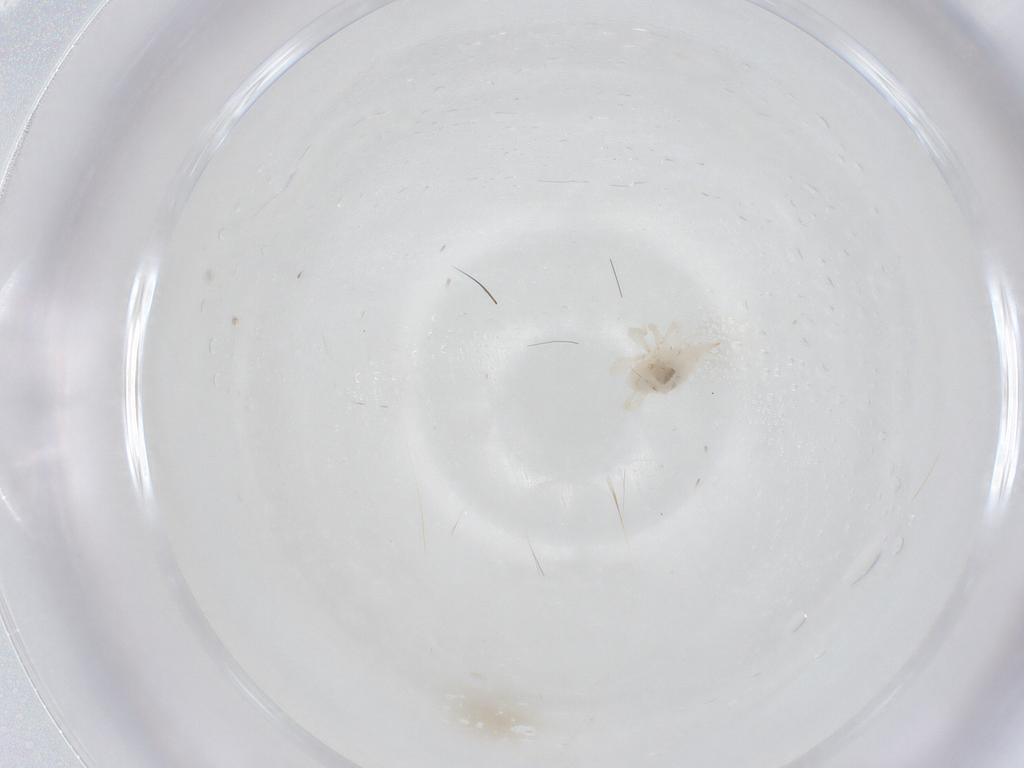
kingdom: Animalia
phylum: Arthropoda
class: Arachnida
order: Trombidiformes
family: Bdellidae
